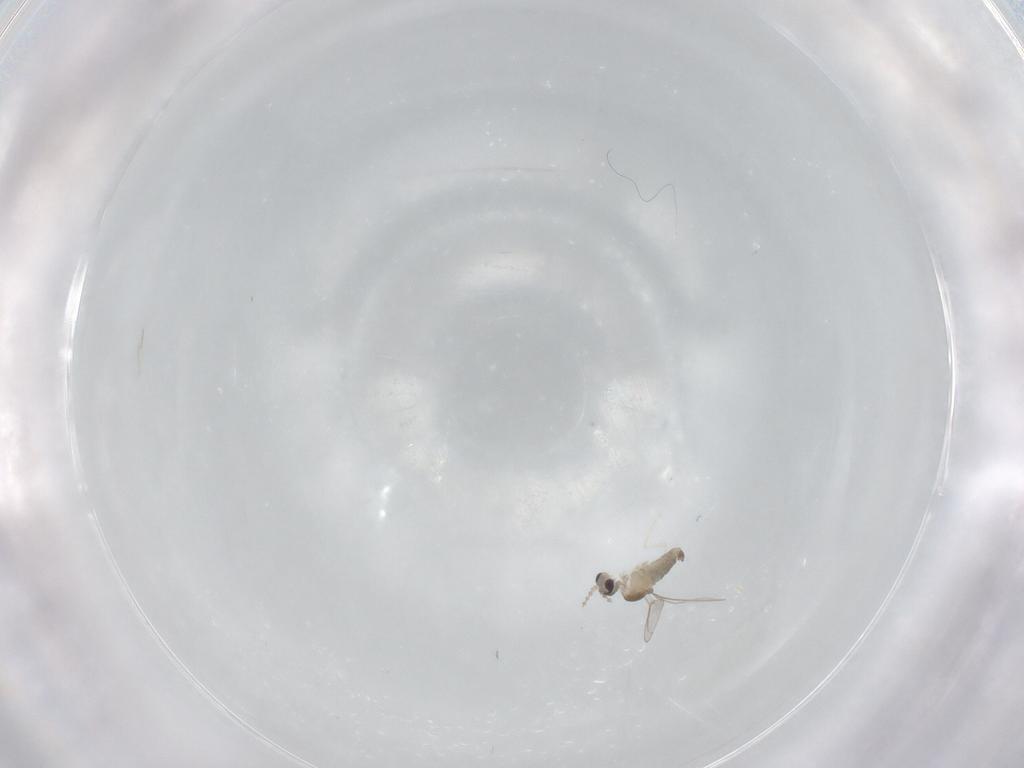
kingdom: Animalia
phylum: Arthropoda
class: Insecta
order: Diptera
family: Cecidomyiidae
